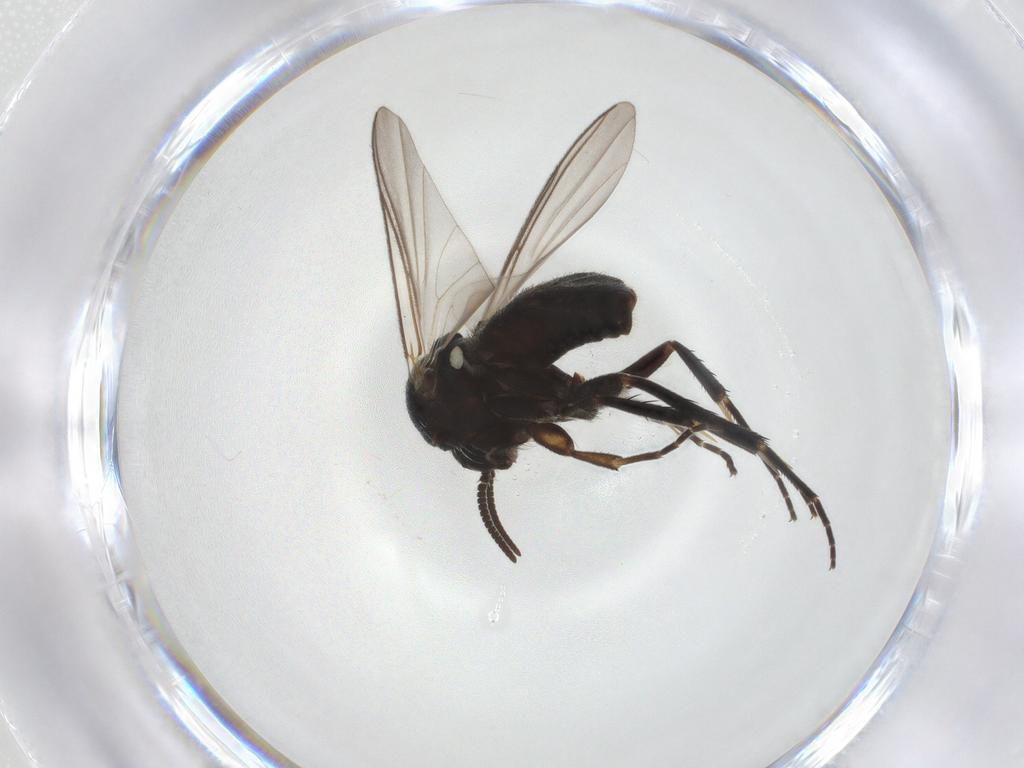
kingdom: Animalia
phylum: Arthropoda
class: Insecta
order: Diptera
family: Mycetophilidae
